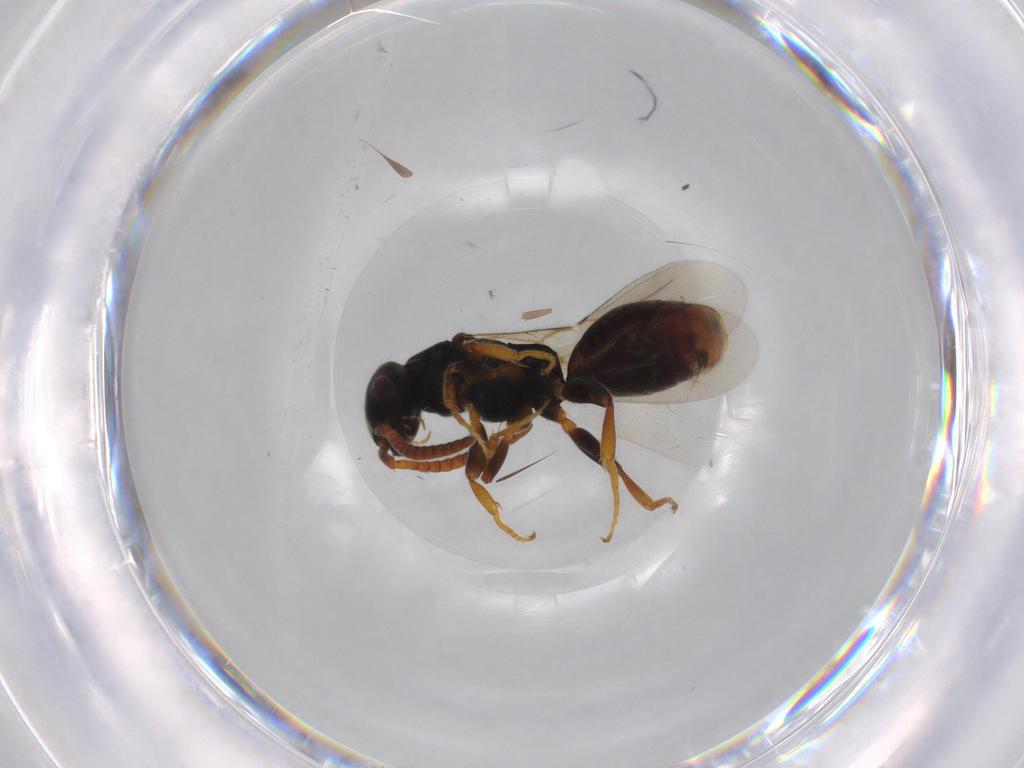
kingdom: Animalia
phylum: Arthropoda
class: Insecta
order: Hymenoptera
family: Bethylidae
